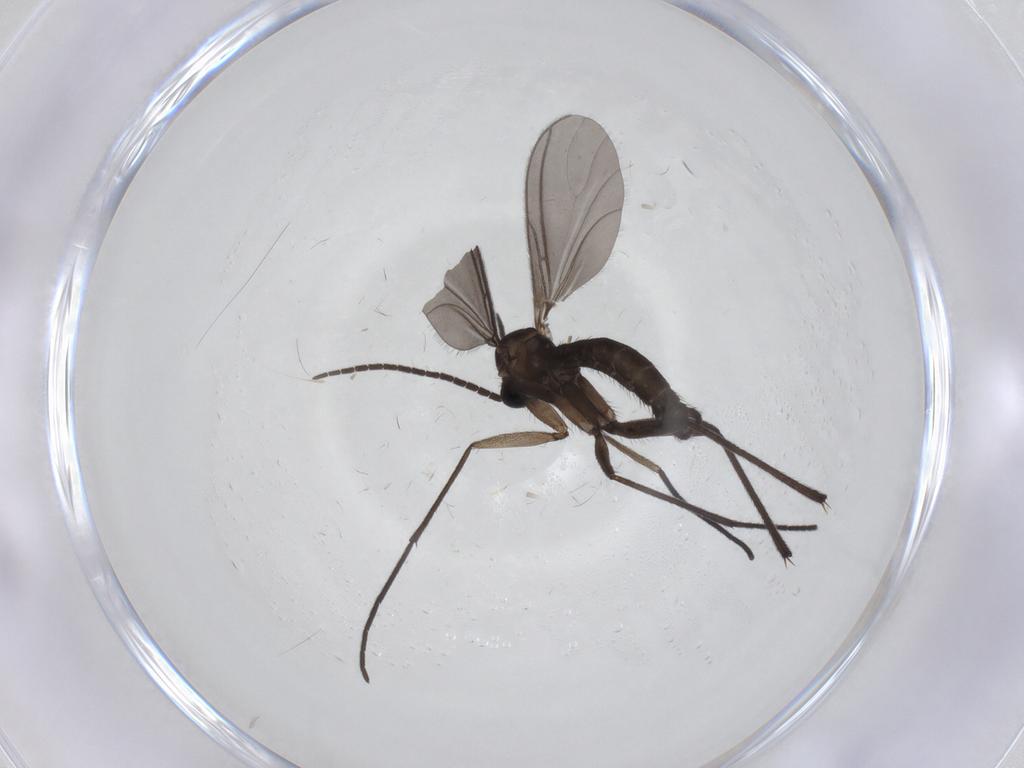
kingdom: Animalia
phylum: Arthropoda
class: Insecta
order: Diptera
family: Sciaridae
